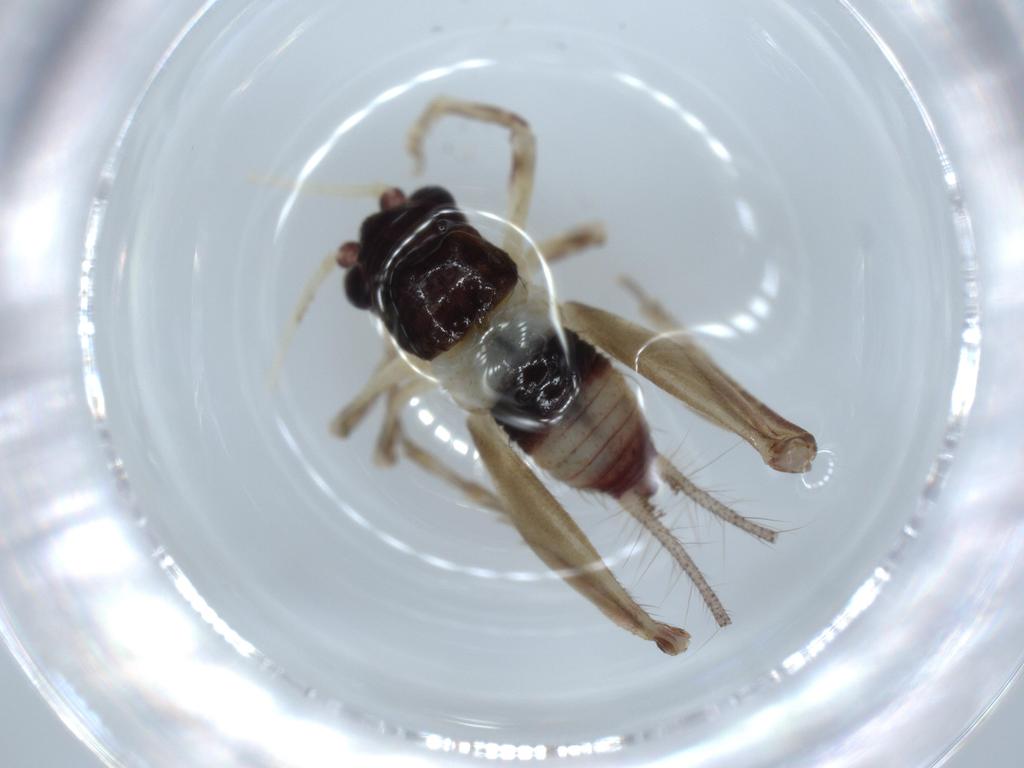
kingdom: Animalia
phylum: Arthropoda
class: Insecta
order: Orthoptera
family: Trigonidiidae
